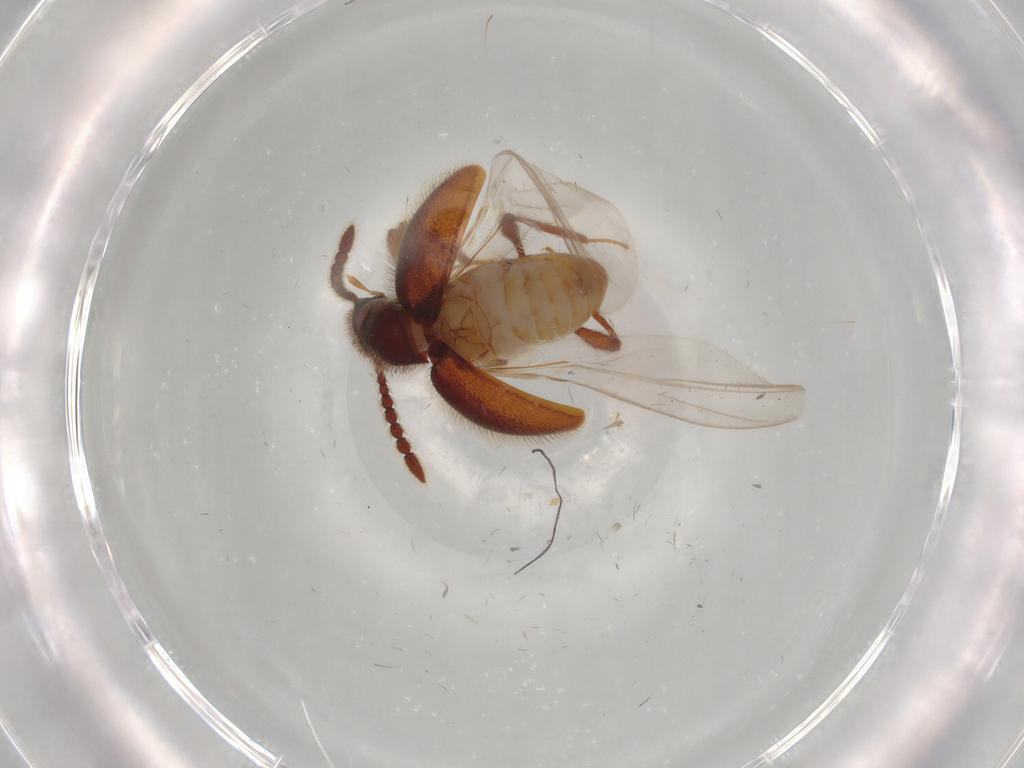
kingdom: Animalia
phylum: Arthropoda
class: Insecta
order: Coleoptera
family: Staphylinidae
